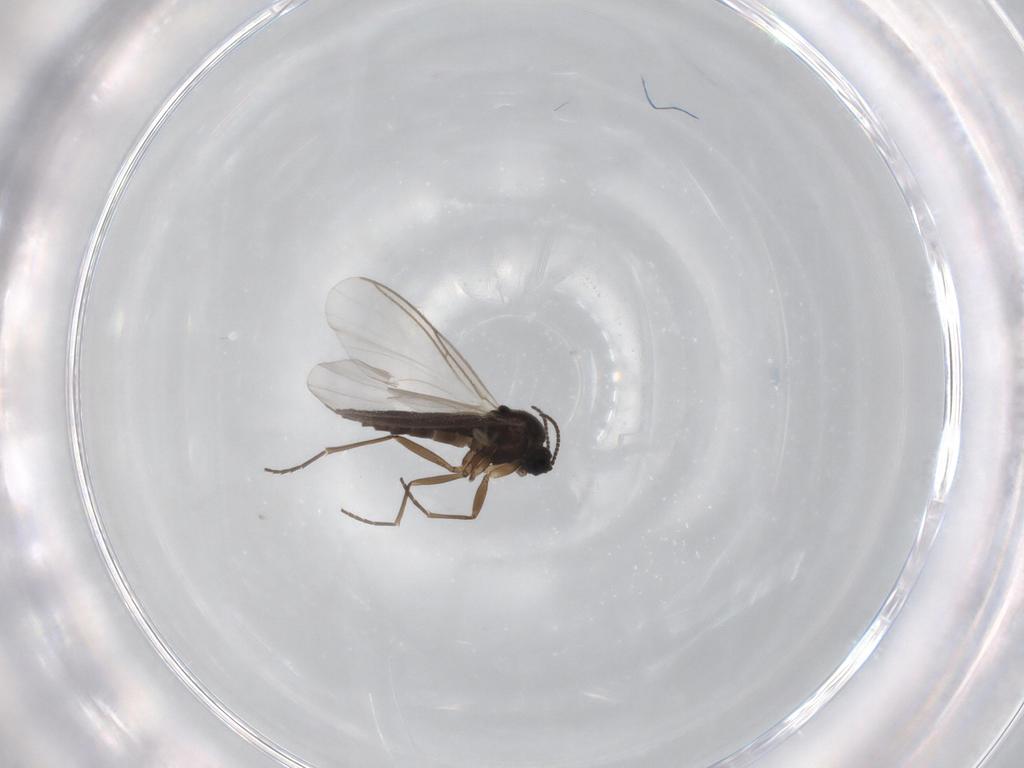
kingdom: Animalia
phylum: Arthropoda
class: Insecta
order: Diptera
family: Sciaridae
